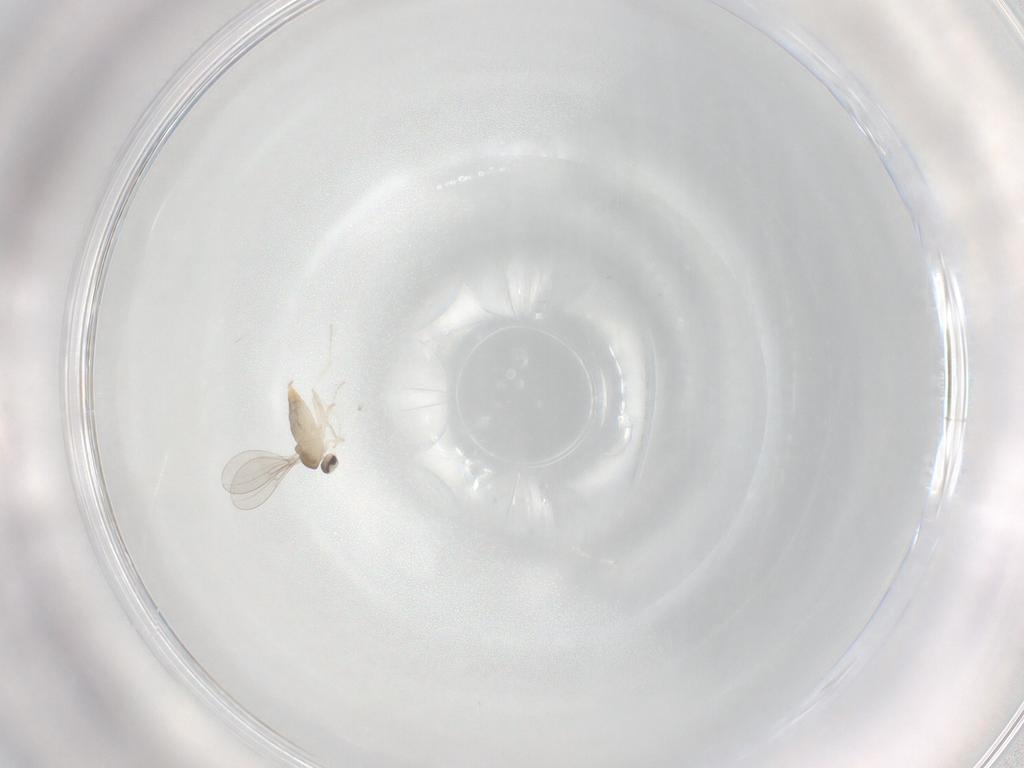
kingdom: Animalia
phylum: Arthropoda
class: Insecta
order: Diptera
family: Cecidomyiidae
